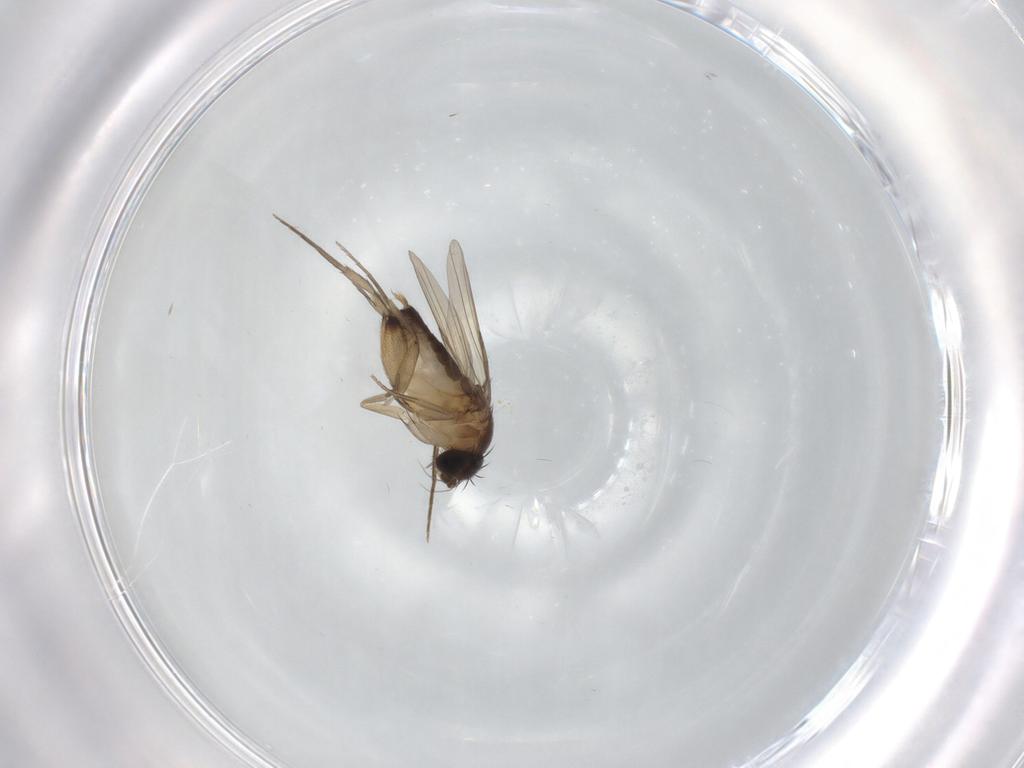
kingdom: Animalia
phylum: Arthropoda
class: Insecta
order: Diptera
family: Phoridae
